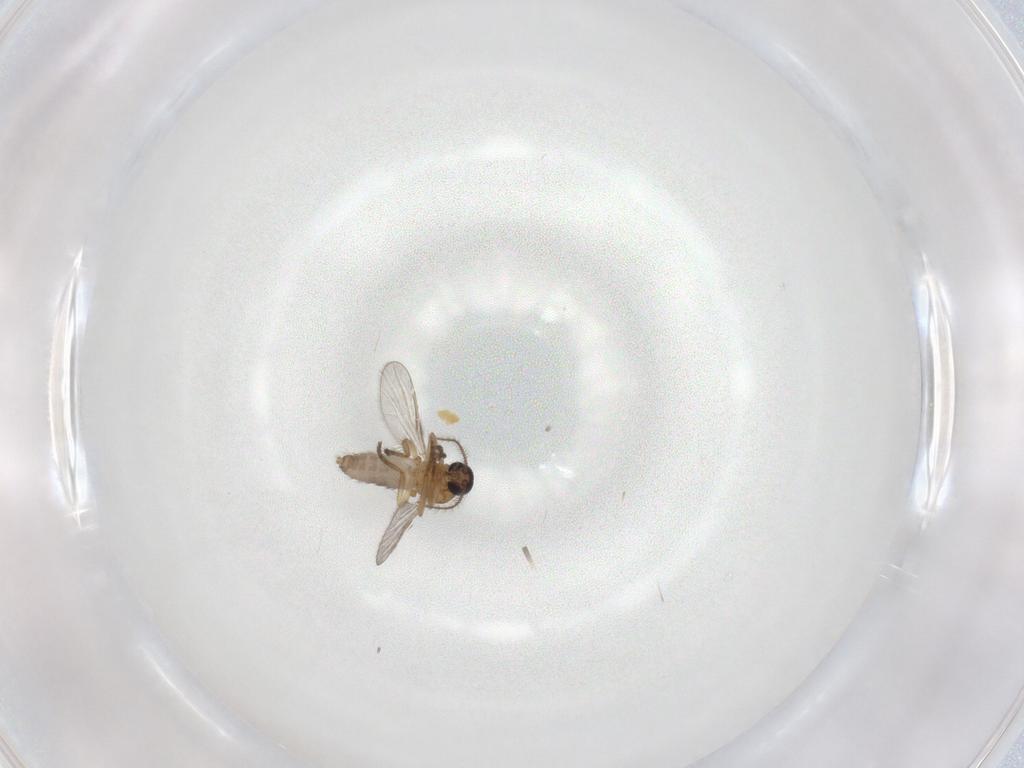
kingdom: Animalia
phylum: Arthropoda
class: Insecta
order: Diptera
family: Ceratopogonidae
